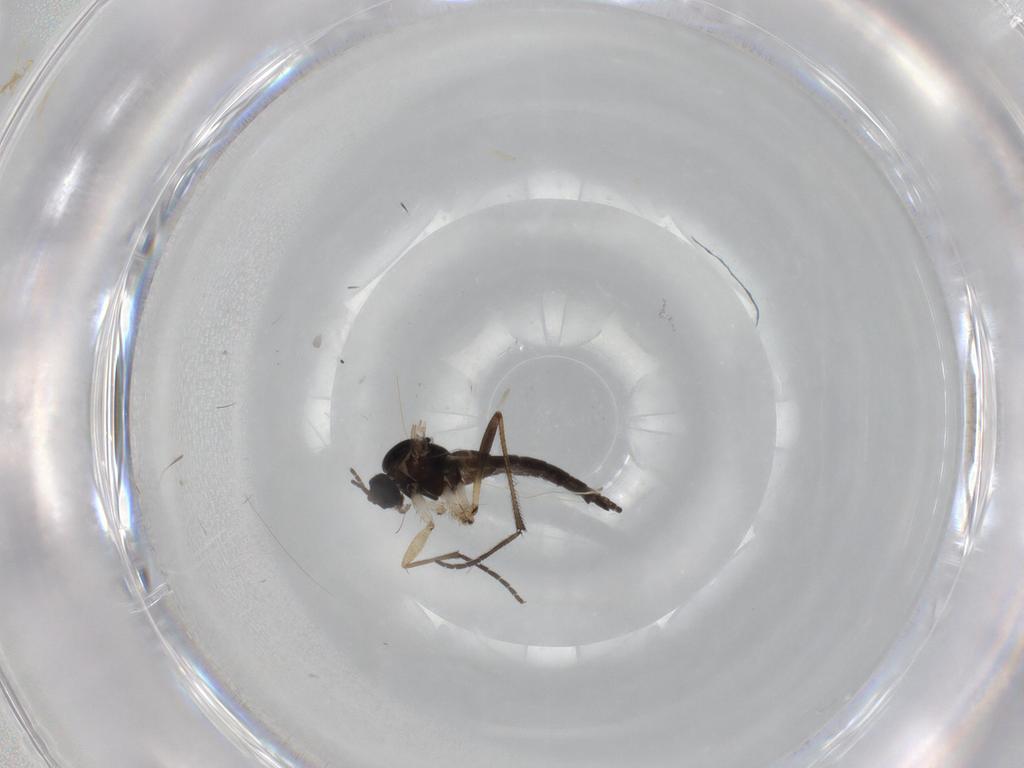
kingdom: Animalia
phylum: Arthropoda
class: Insecta
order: Diptera
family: Sciaridae
